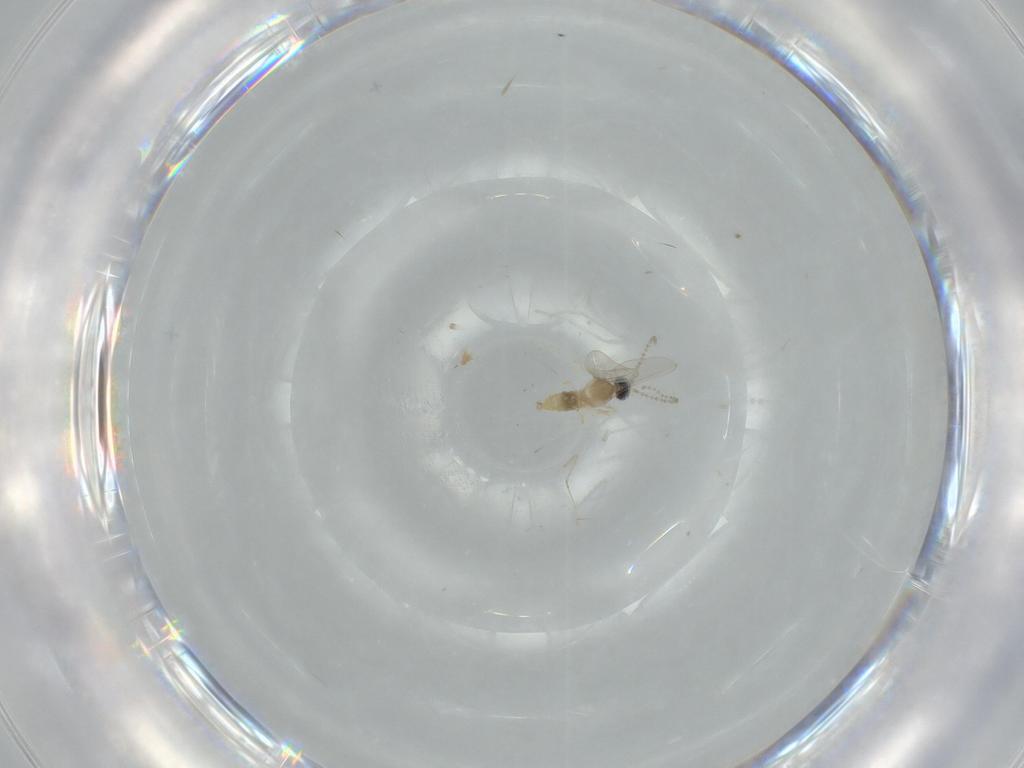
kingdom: Animalia
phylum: Arthropoda
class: Insecta
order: Diptera
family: Cecidomyiidae
